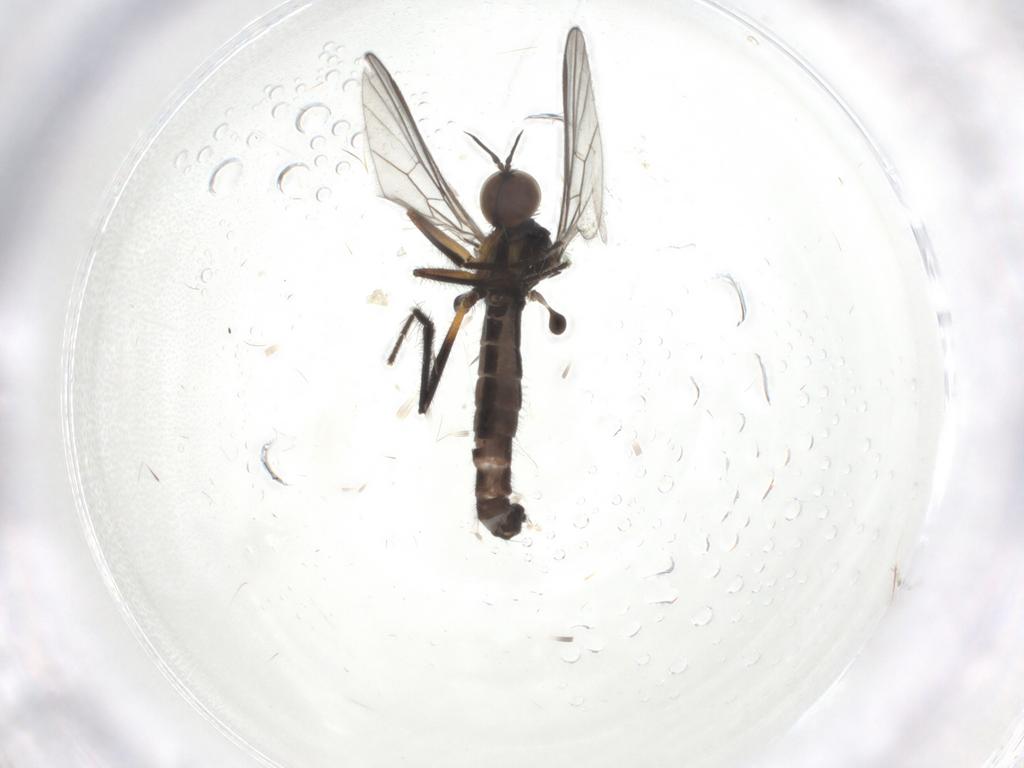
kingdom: Animalia
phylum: Arthropoda
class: Insecta
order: Diptera
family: Empididae
